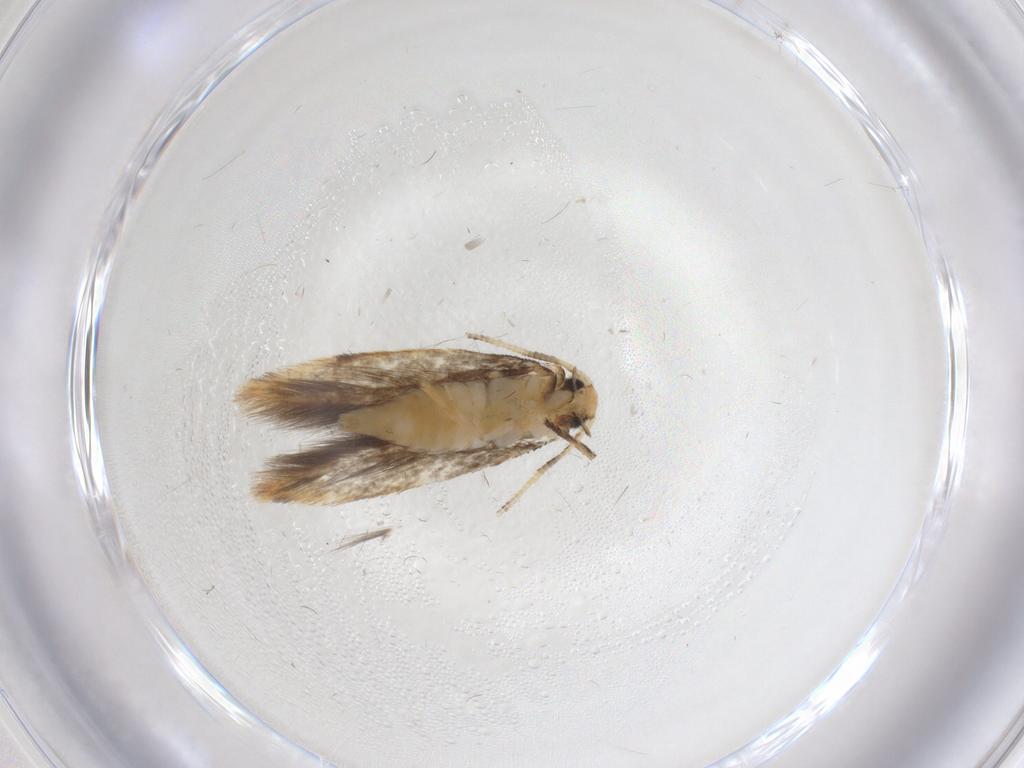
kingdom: Animalia
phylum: Arthropoda
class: Insecta
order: Lepidoptera
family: Tineidae
